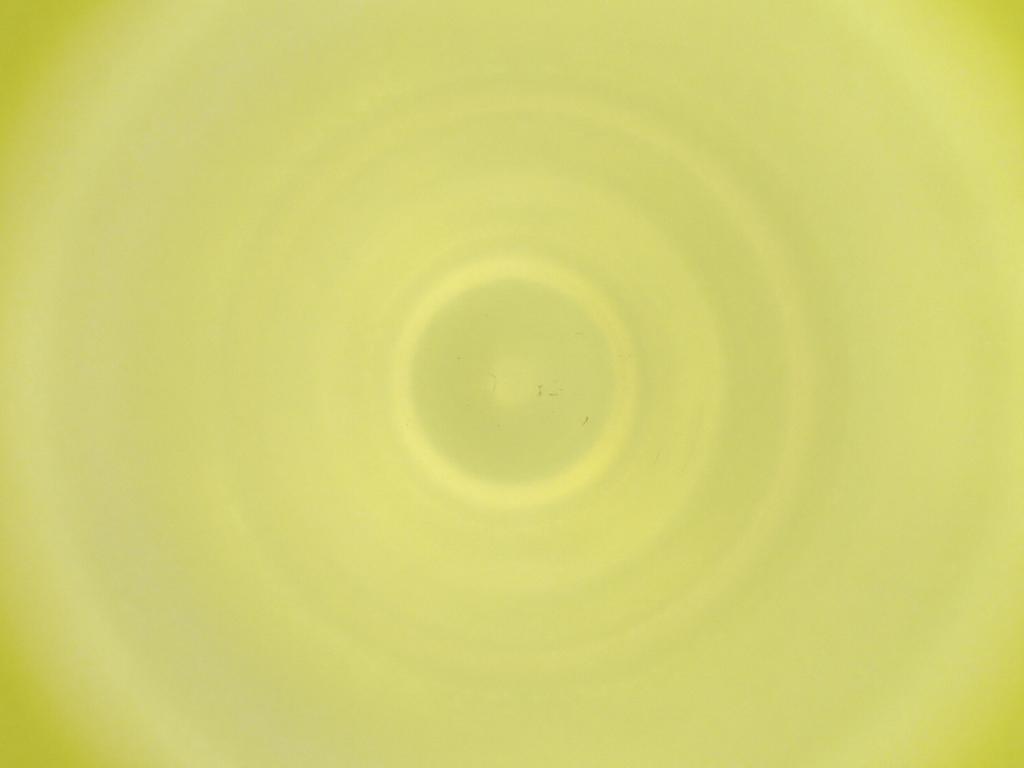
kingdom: Animalia
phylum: Arthropoda
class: Insecta
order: Diptera
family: Cecidomyiidae
